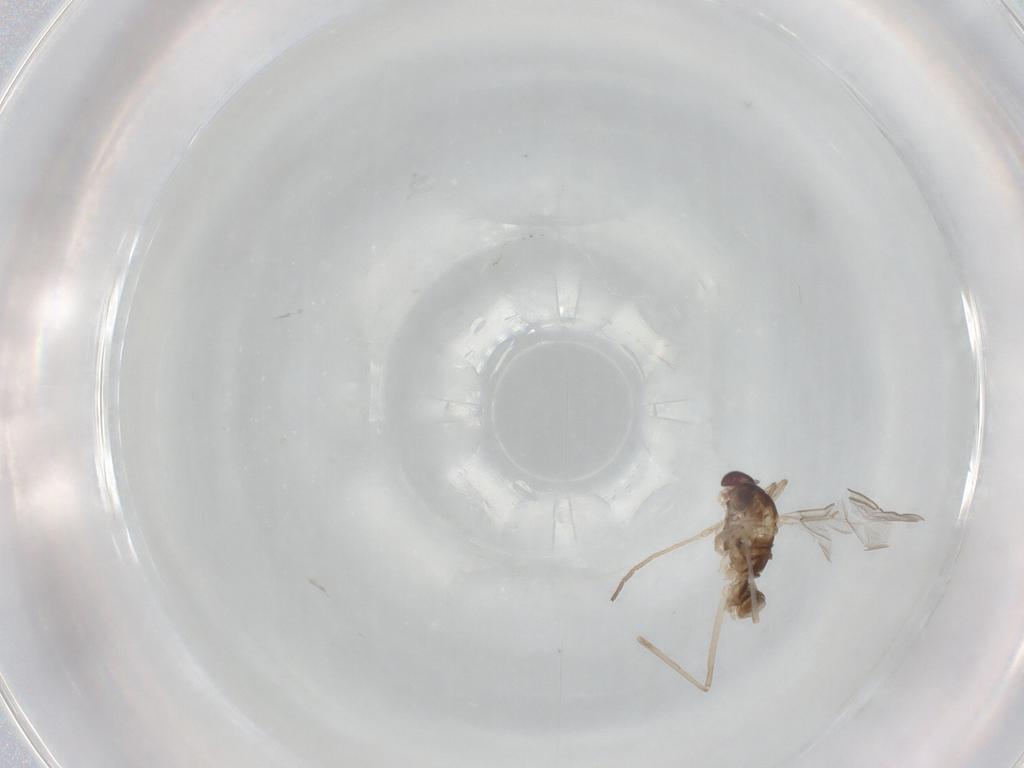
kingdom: Animalia
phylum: Arthropoda
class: Insecta
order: Diptera
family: Cecidomyiidae
